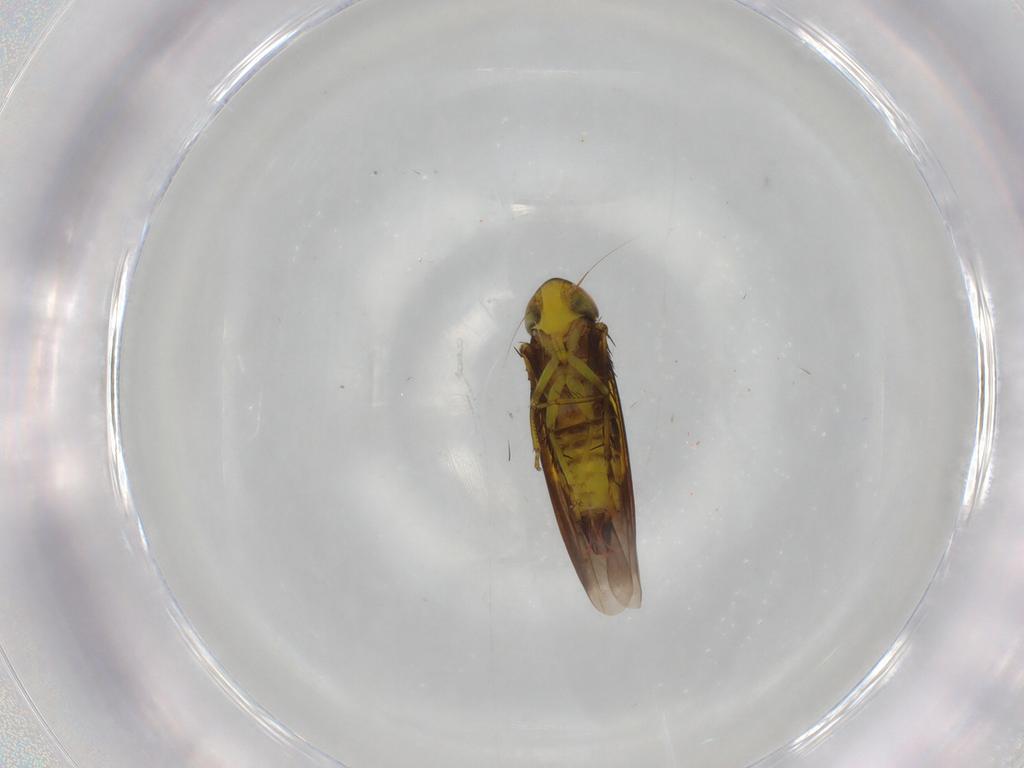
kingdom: Animalia
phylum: Arthropoda
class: Insecta
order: Hemiptera
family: Cicadellidae
